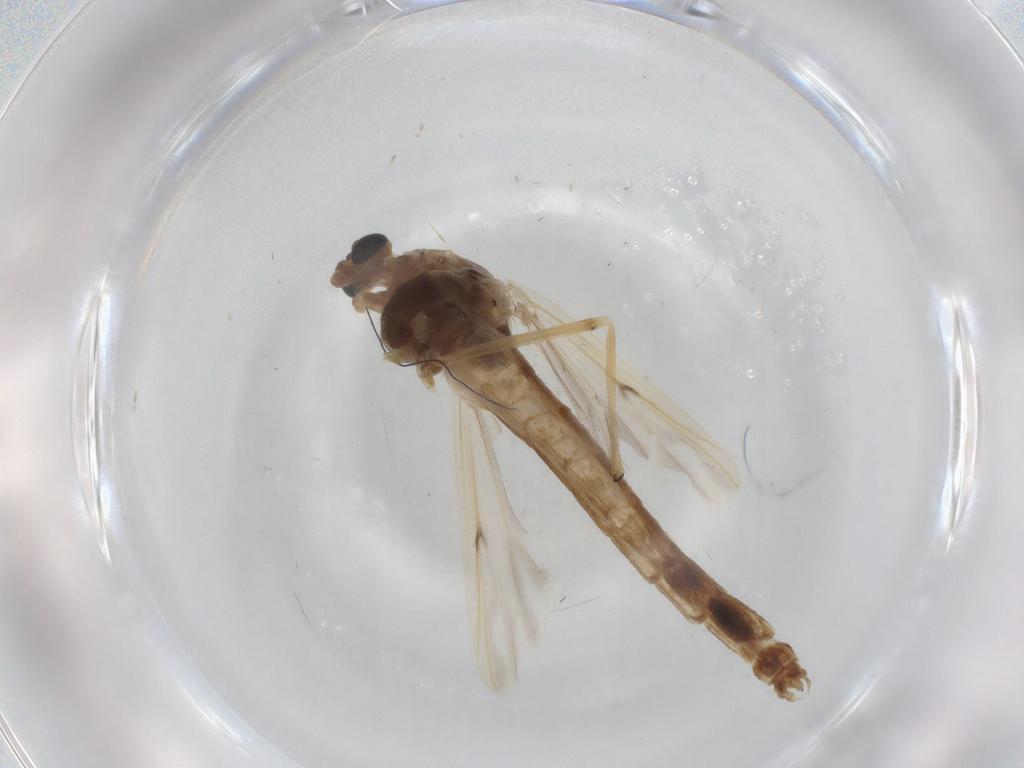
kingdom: Animalia
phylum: Arthropoda
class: Insecta
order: Diptera
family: Chironomidae
